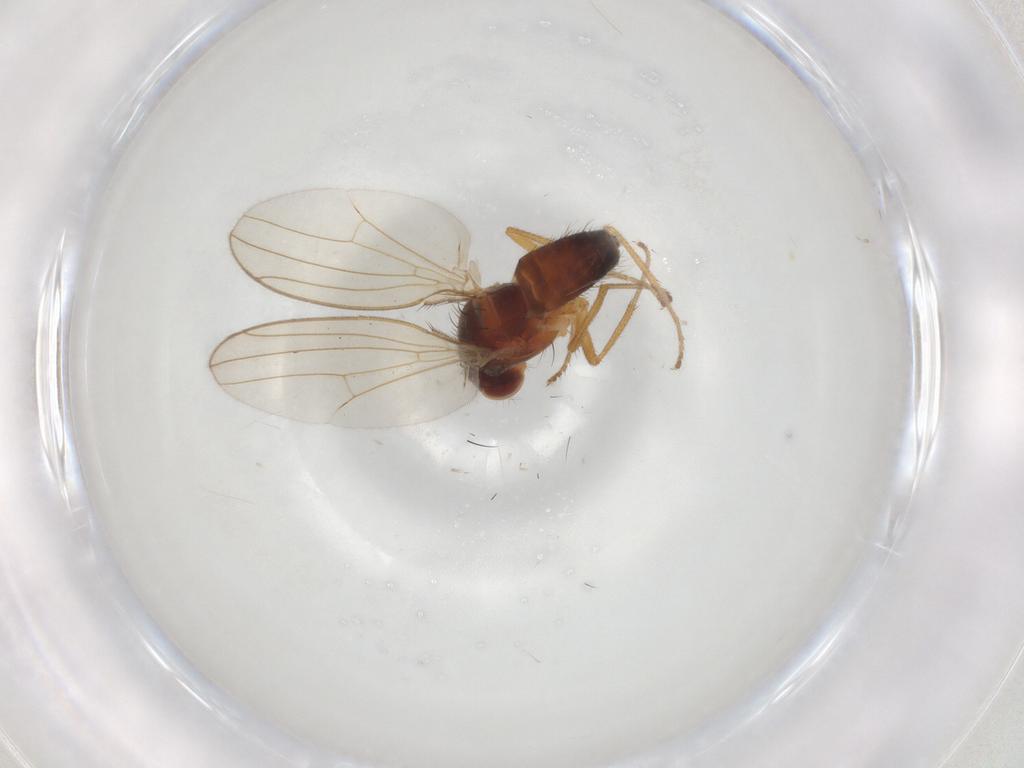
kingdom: Animalia
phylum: Arthropoda
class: Insecta
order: Diptera
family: Drosophilidae
